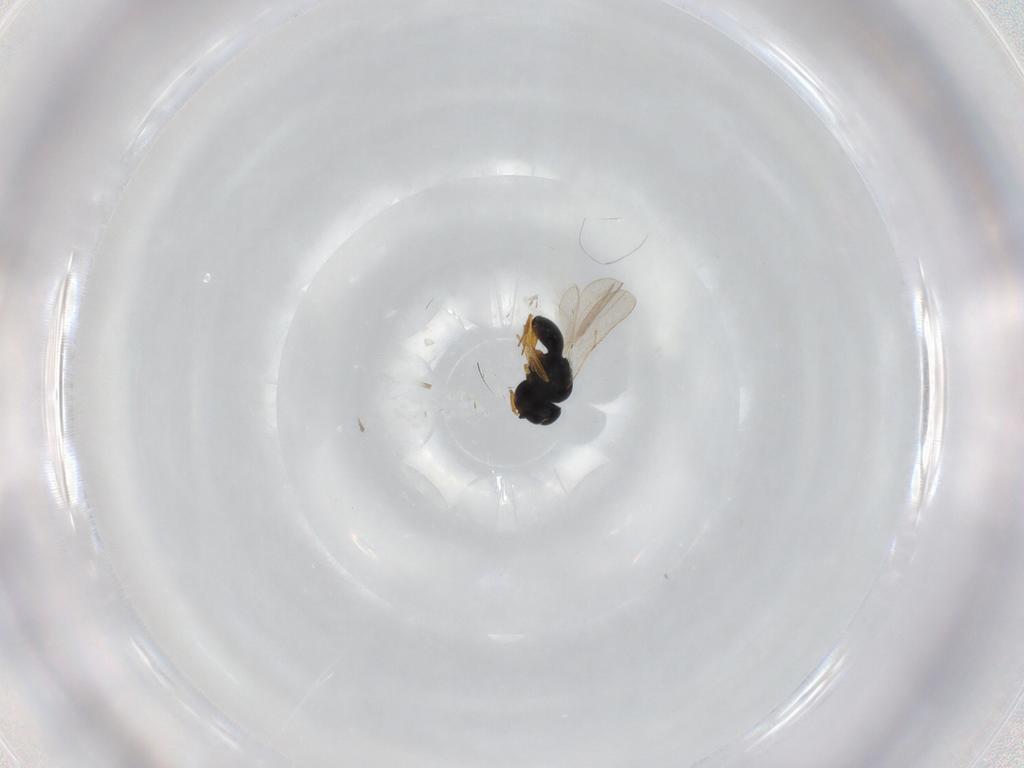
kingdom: Animalia
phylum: Arthropoda
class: Insecta
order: Hymenoptera
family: Scelionidae
